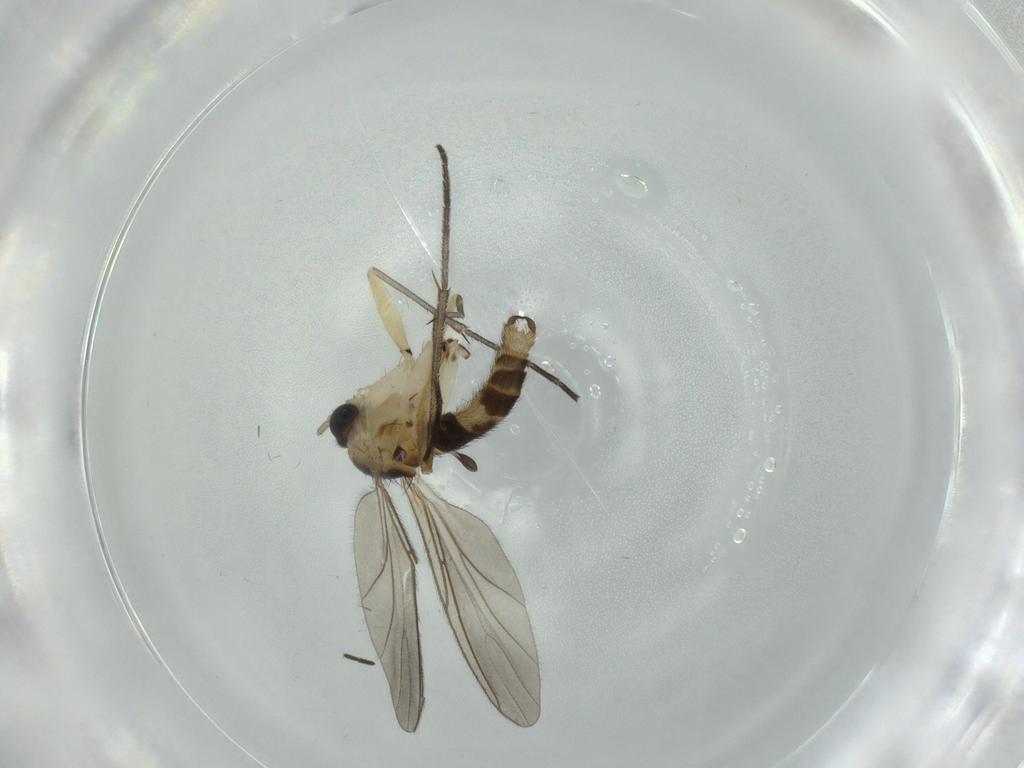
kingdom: Animalia
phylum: Arthropoda
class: Insecta
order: Diptera
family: Sciaridae
